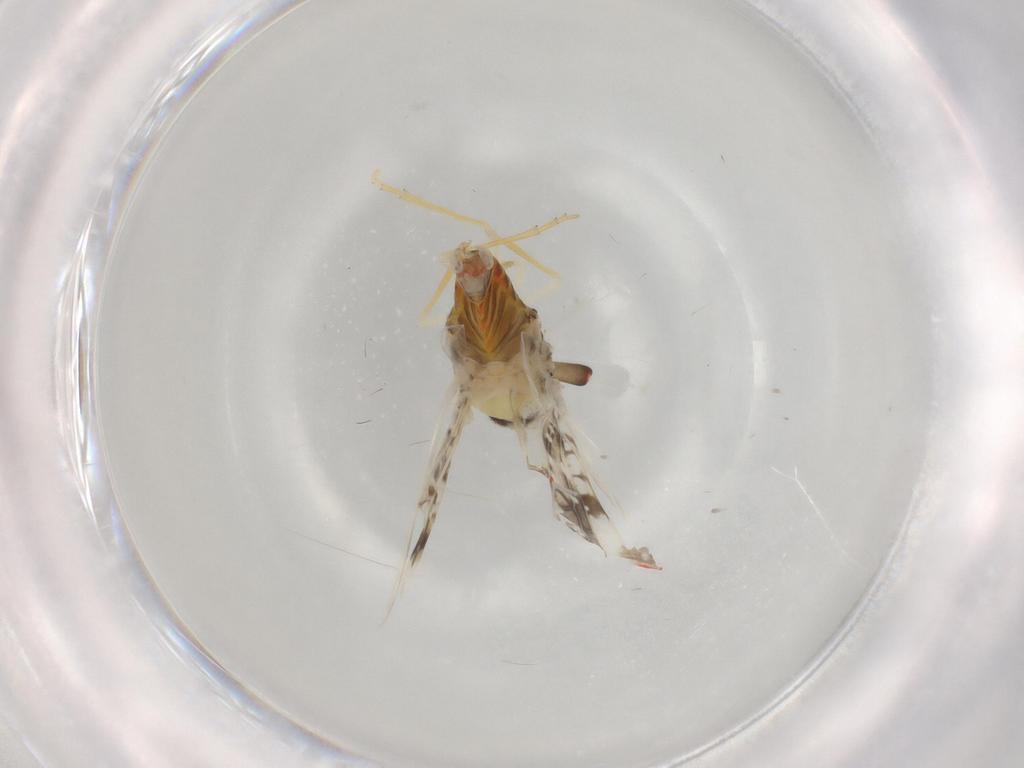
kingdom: Animalia
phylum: Arthropoda
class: Insecta
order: Hemiptera
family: Derbidae
